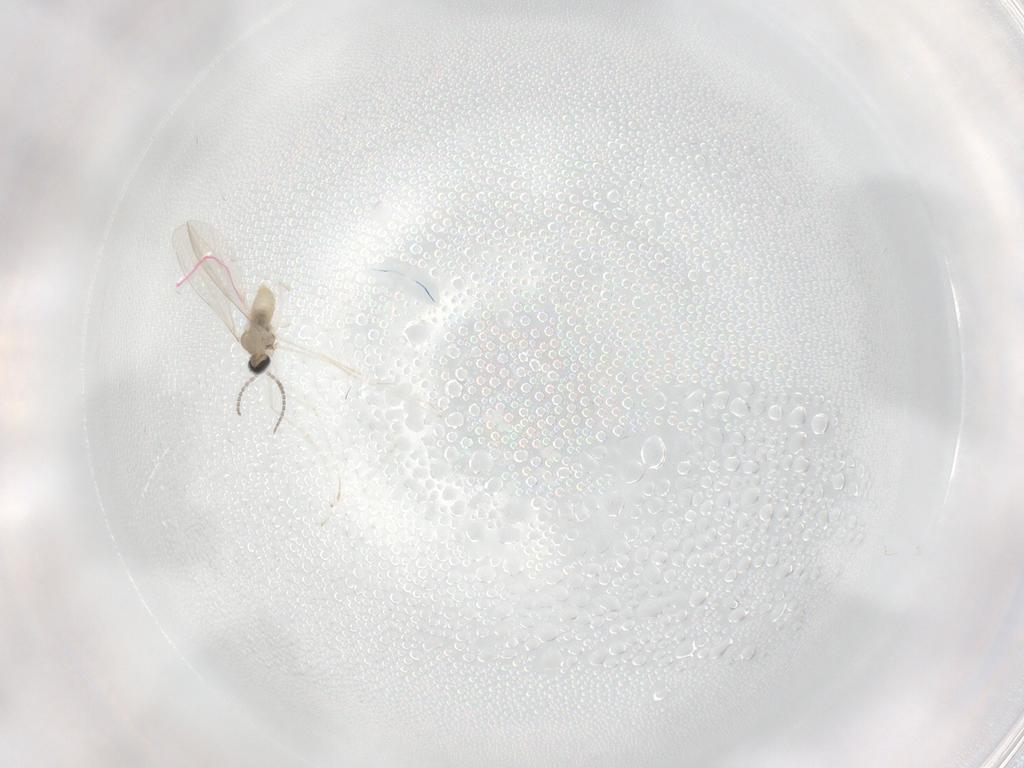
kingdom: Animalia
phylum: Arthropoda
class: Insecta
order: Diptera
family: Cecidomyiidae
